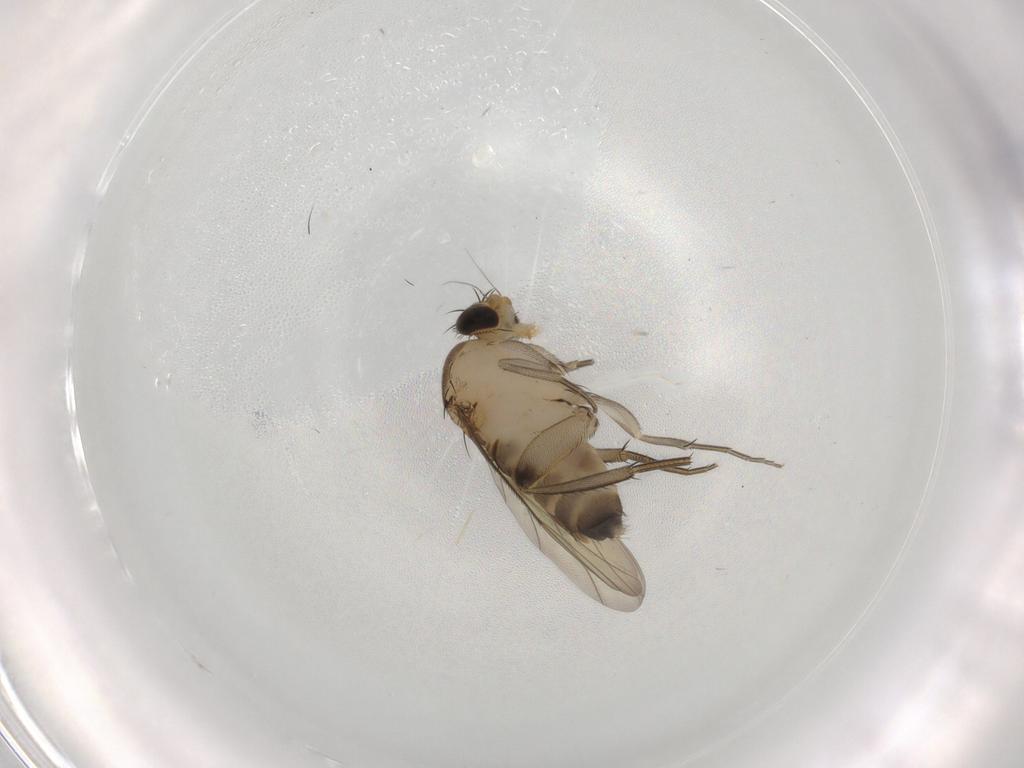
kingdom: Animalia
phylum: Arthropoda
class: Insecta
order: Diptera
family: Phoridae
